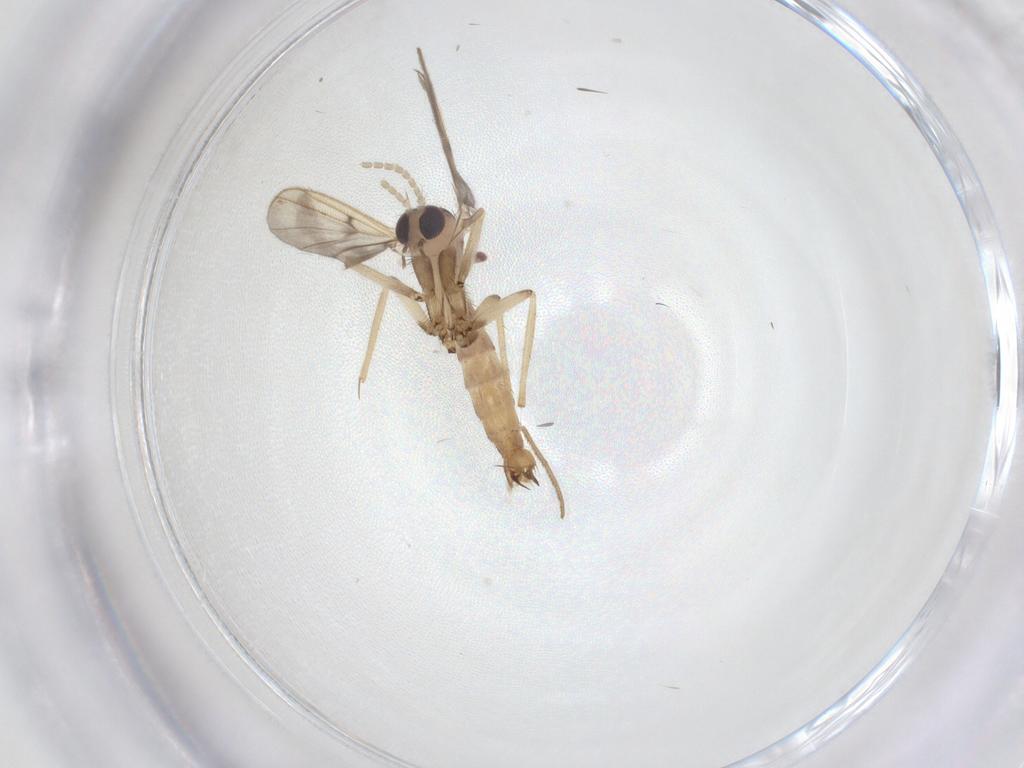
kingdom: Animalia
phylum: Arthropoda
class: Insecta
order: Diptera
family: Mycetophilidae
